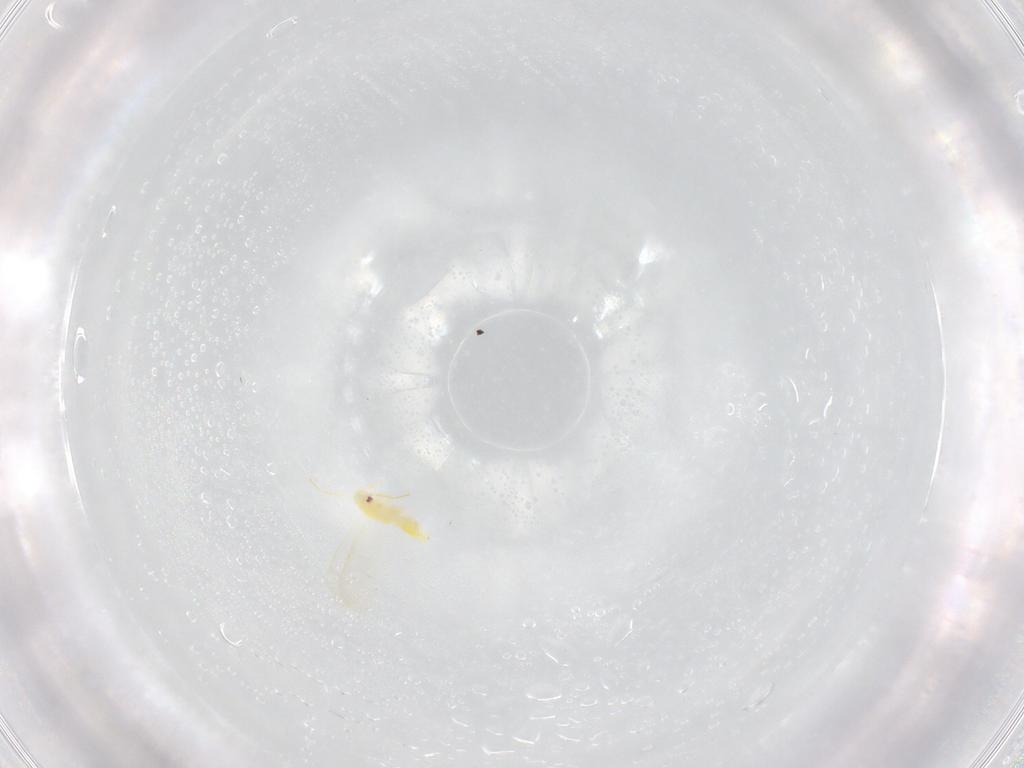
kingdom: Animalia
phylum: Arthropoda
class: Insecta
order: Hemiptera
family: Aleyrodidae
